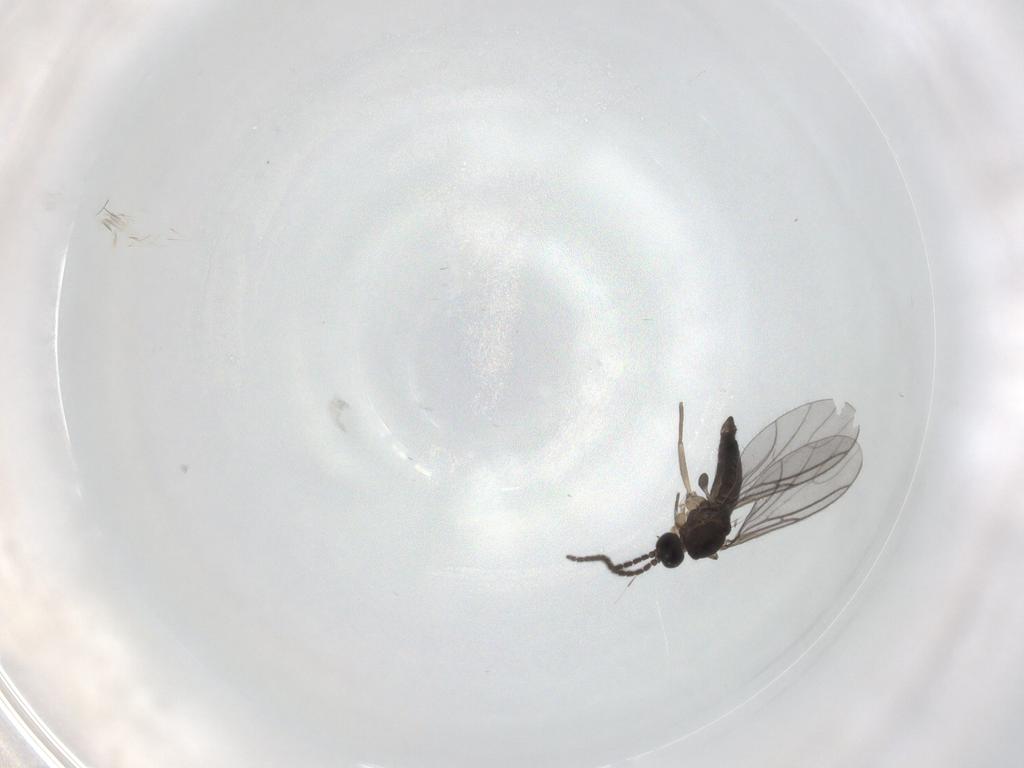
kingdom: Animalia
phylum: Arthropoda
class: Insecta
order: Diptera
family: Sciaridae
